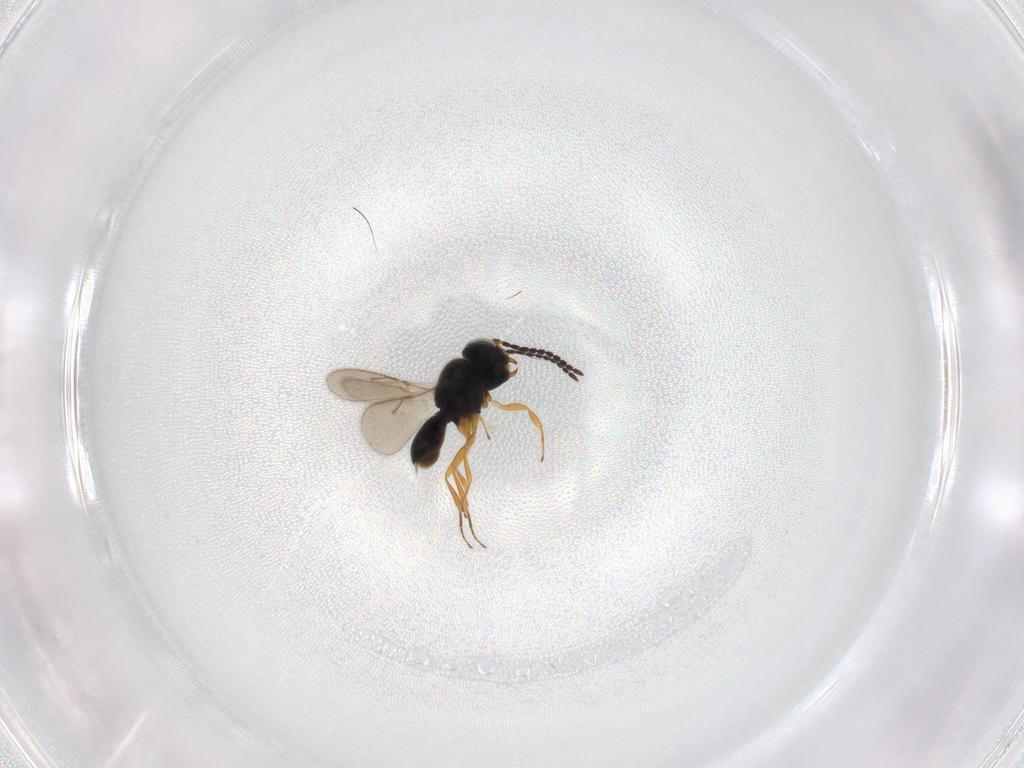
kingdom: Animalia
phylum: Arthropoda
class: Insecta
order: Hymenoptera
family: Scelionidae
